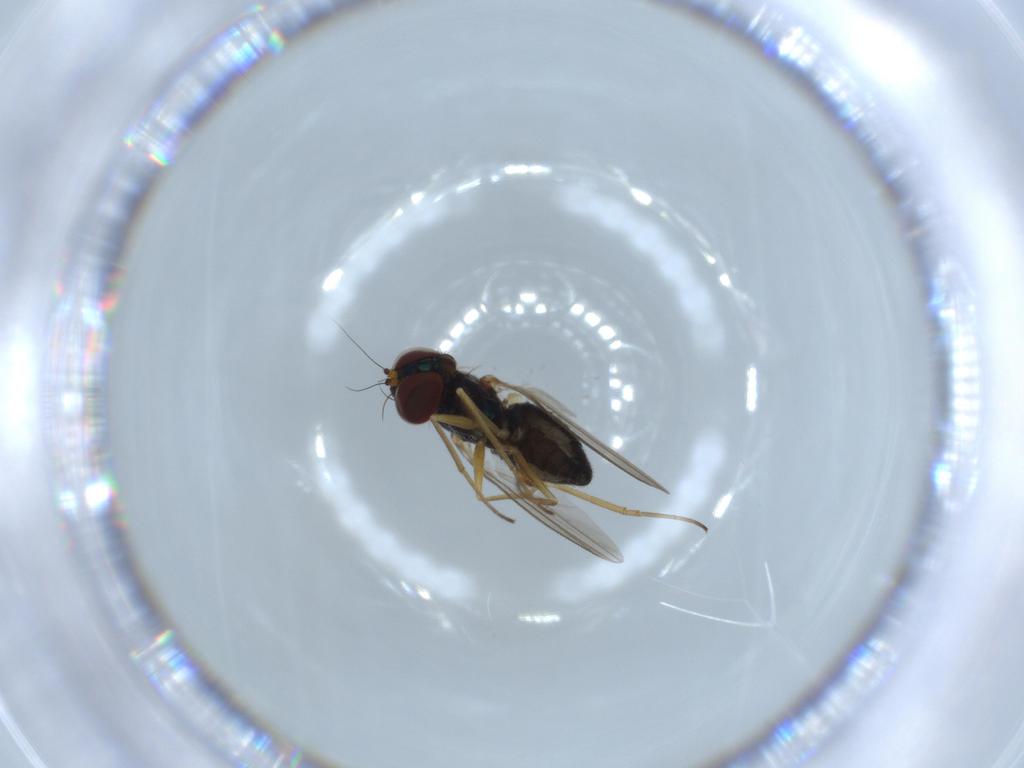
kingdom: Animalia
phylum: Arthropoda
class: Insecta
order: Diptera
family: Dolichopodidae
